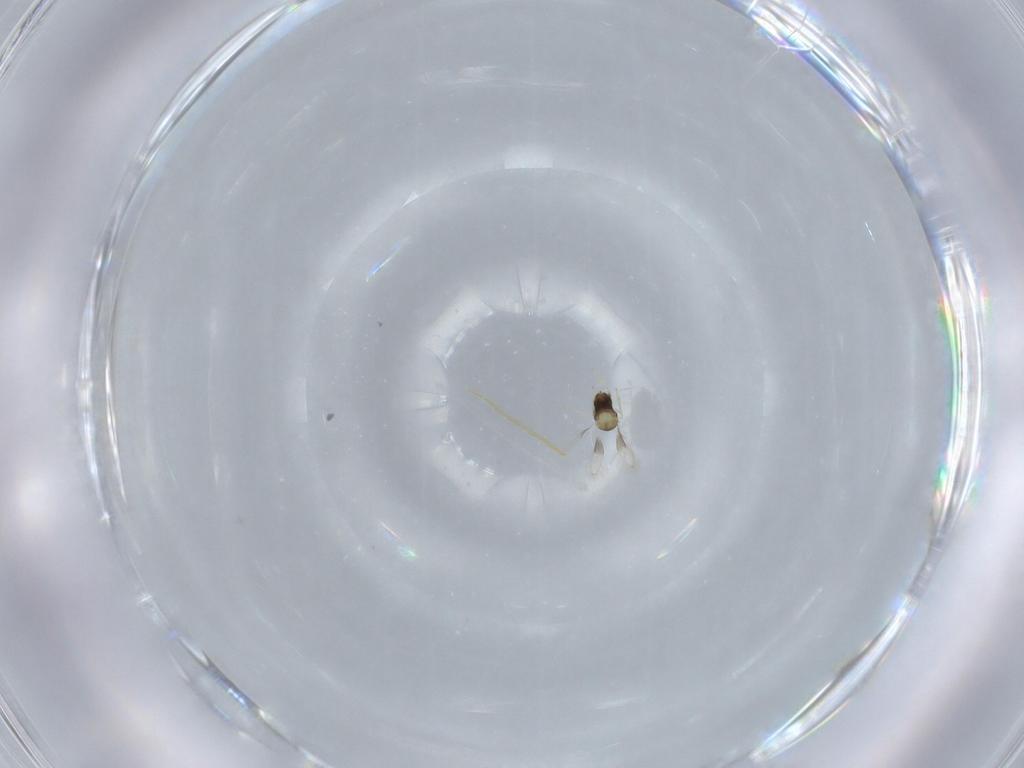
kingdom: Animalia
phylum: Arthropoda
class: Insecta
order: Hymenoptera
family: Aphelinidae
